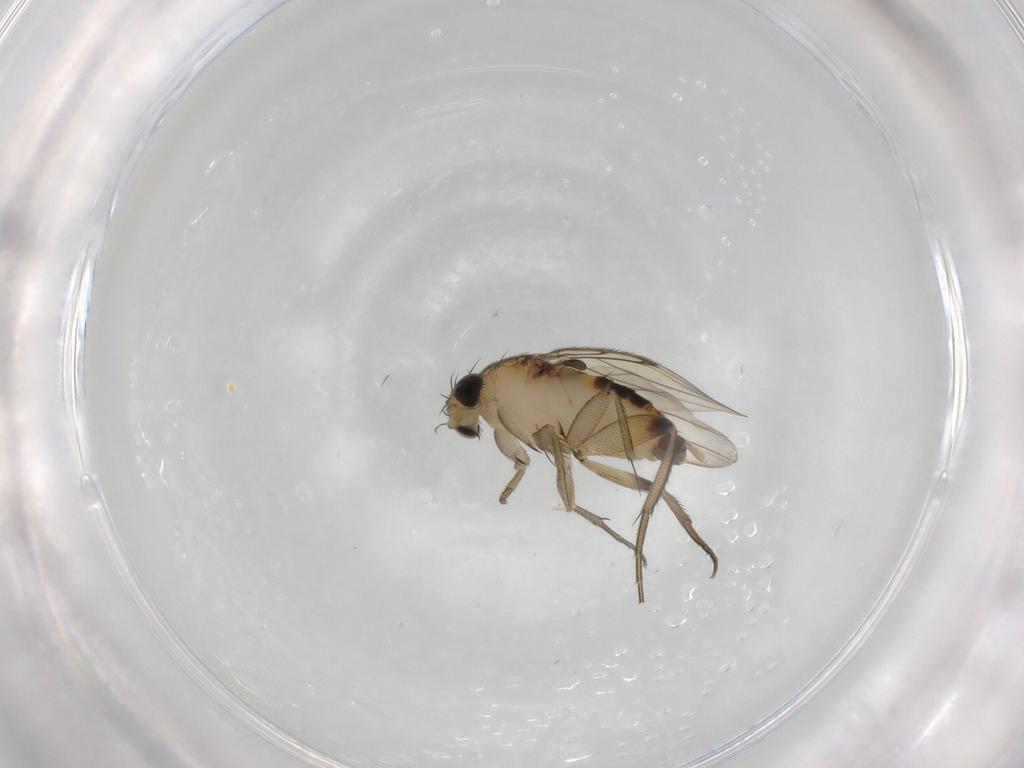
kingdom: Animalia
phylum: Arthropoda
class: Insecta
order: Diptera
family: Phoridae
